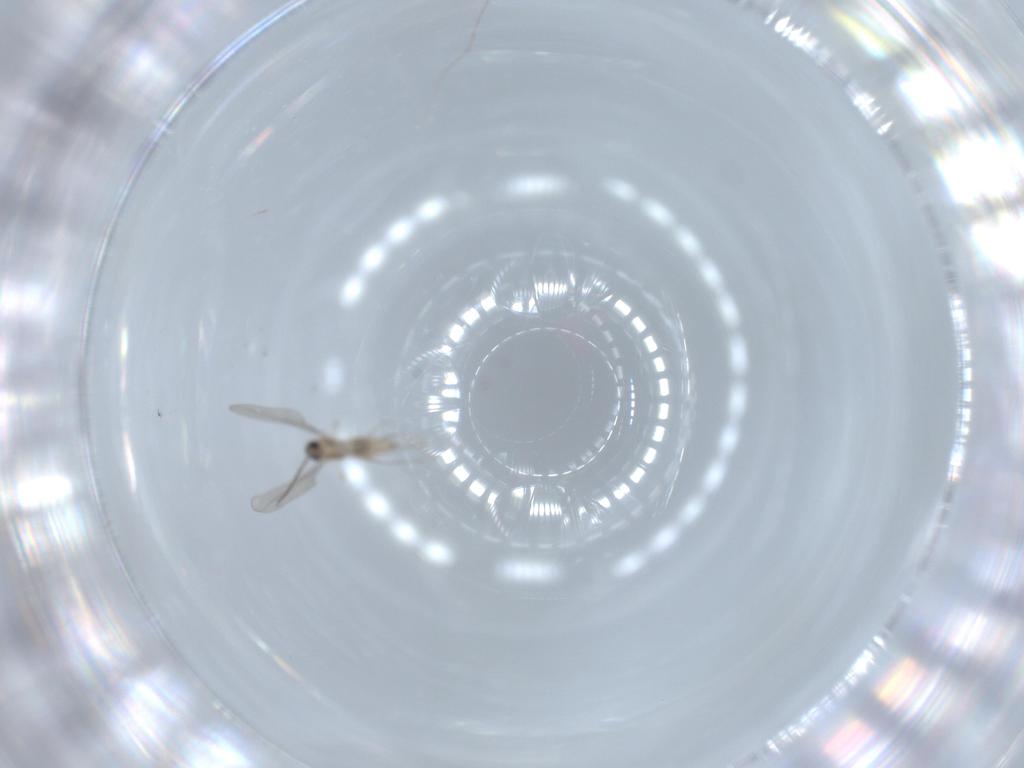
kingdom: Animalia
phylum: Arthropoda
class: Insecta
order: Diptera
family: Cecidomyiidae
